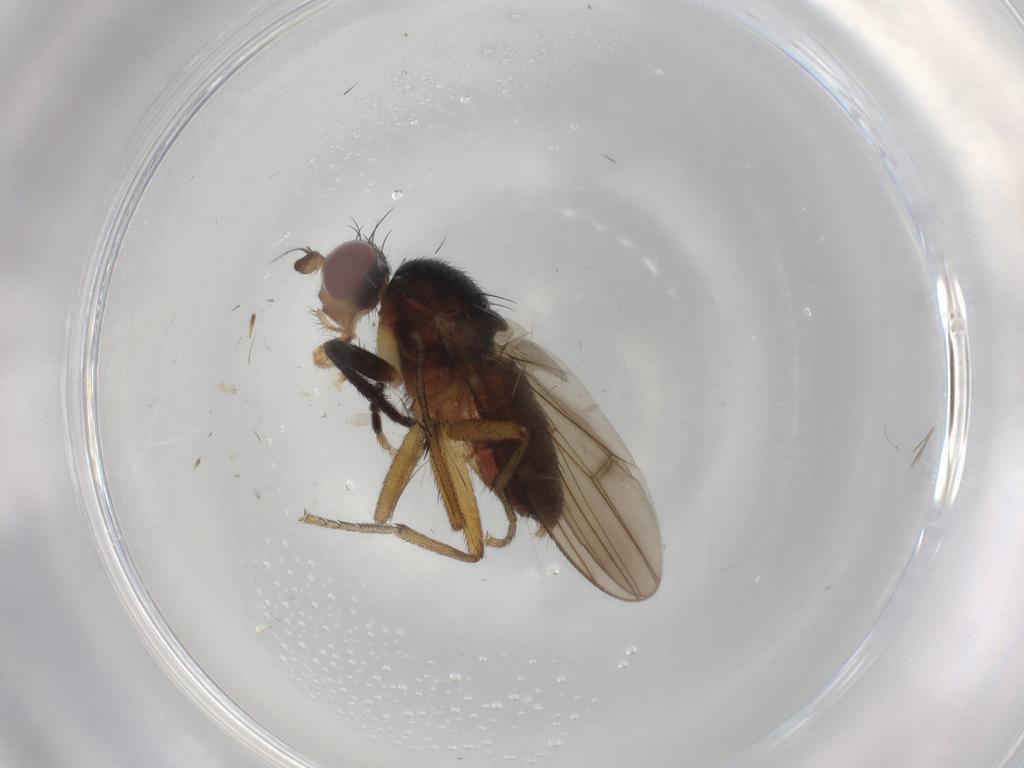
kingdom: Animalia
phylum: Arthropoda
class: Insecta
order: Diptera
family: Sciomyzidae
